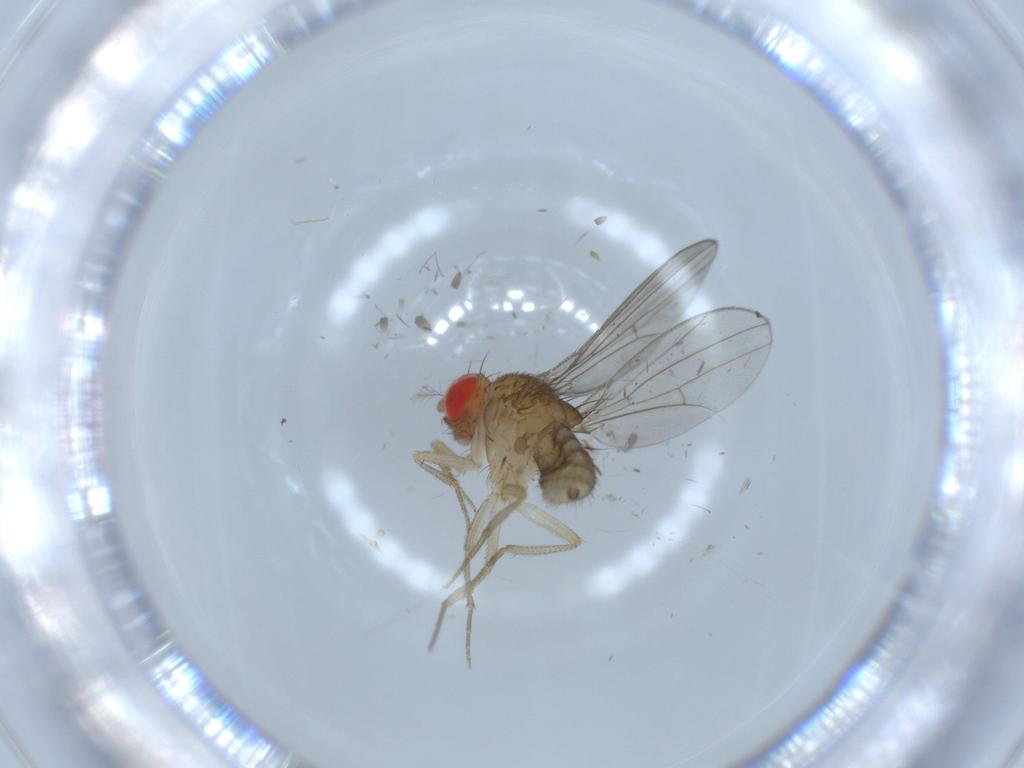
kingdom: Animalia
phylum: Arthropoda
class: Insecta
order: Diptera
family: Drosophilidae
